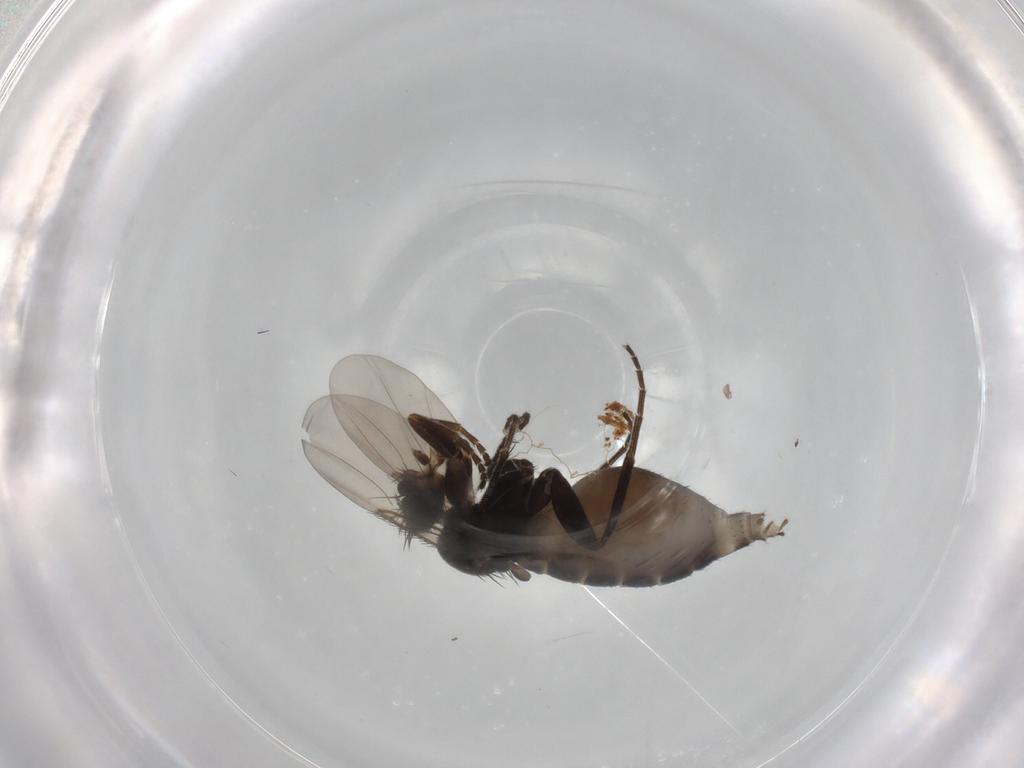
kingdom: Animalia
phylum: Arthropoda
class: Insecta
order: Diptera
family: Phoridae
